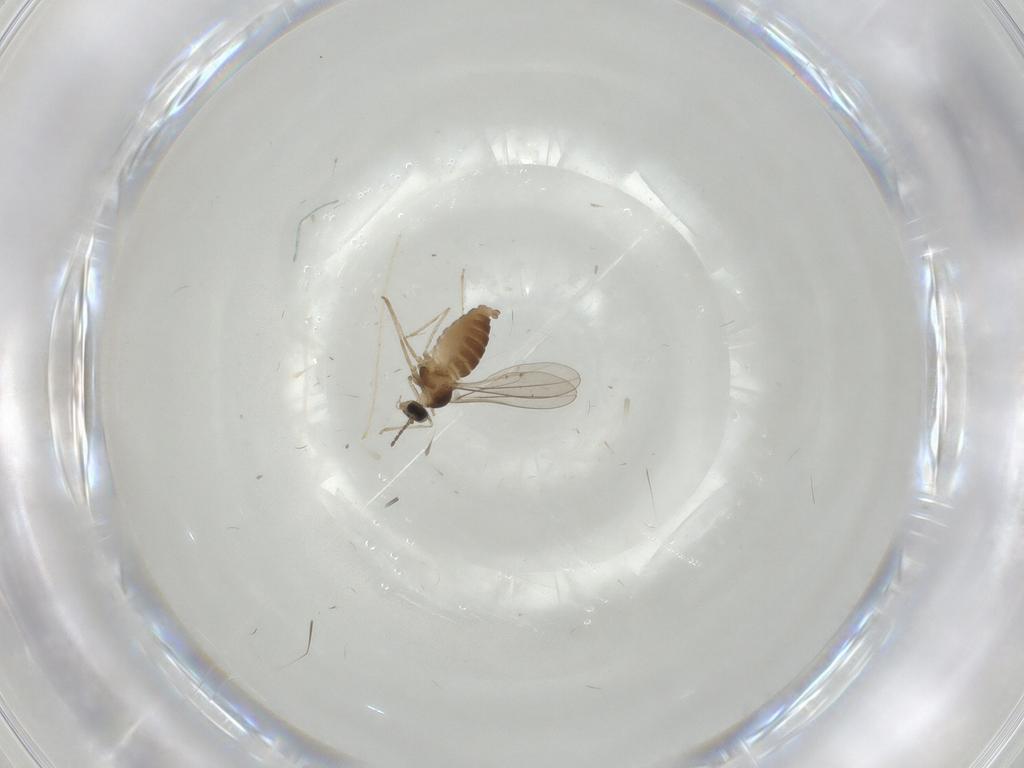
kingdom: Animalia
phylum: Arthropoda
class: Insecta
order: Diptera
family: Cecidomyiidae
